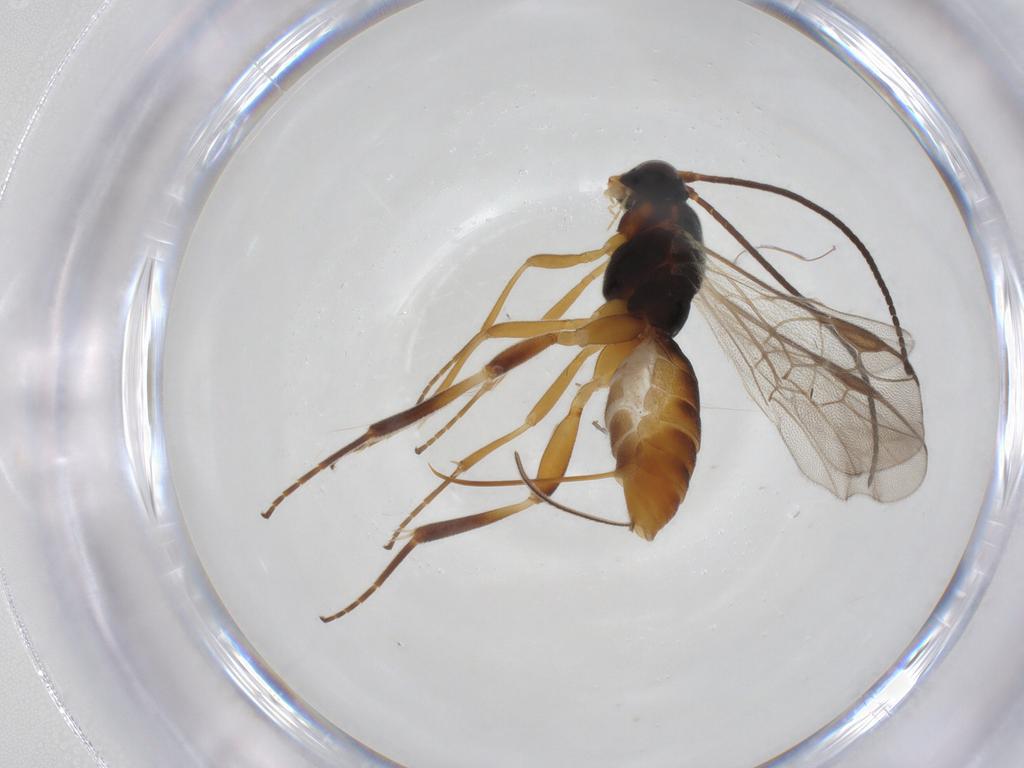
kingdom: Animalia
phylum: Arthropoda
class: Insecta
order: Hymenoptera
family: Braconidae
